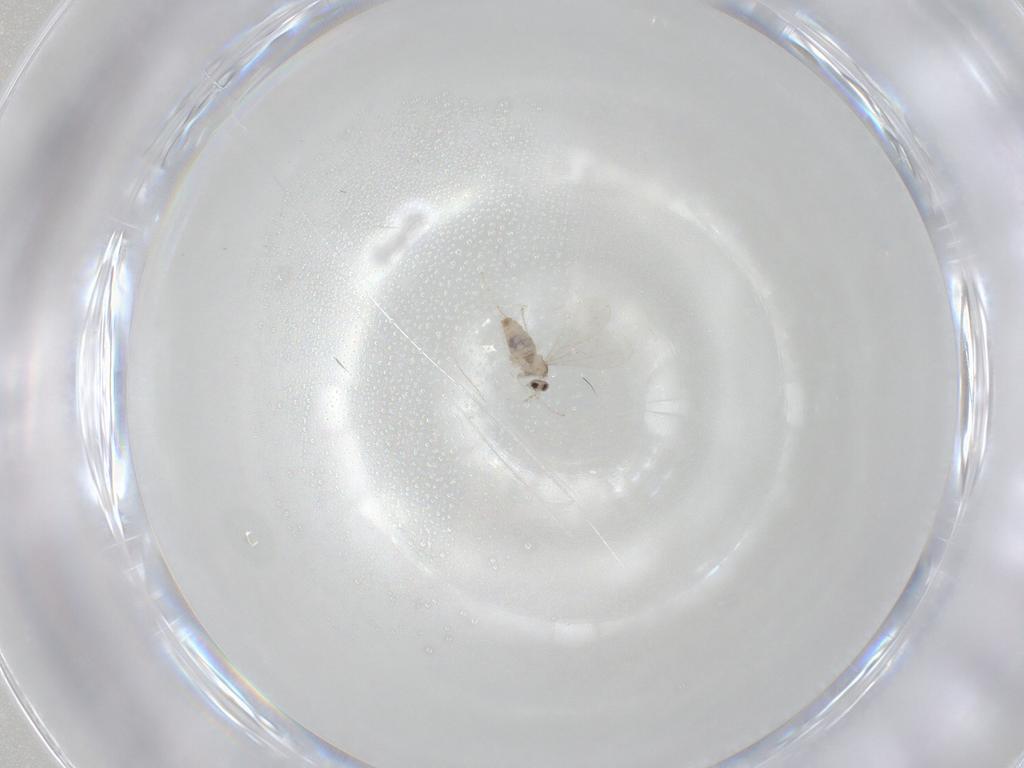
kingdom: Animalia
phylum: Arthropoda
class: Insecta
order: Diptera
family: Cecidomyiidae
